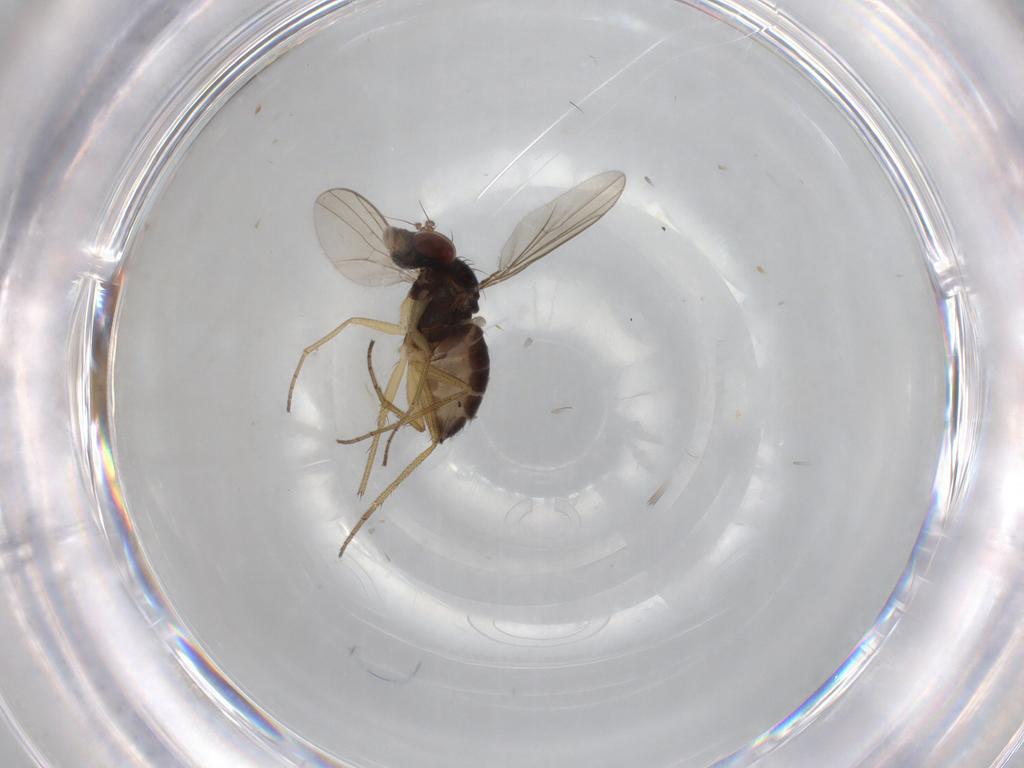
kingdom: Animalia
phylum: Arthropoda
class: Insecta
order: Diptera
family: Dolichopodidae
